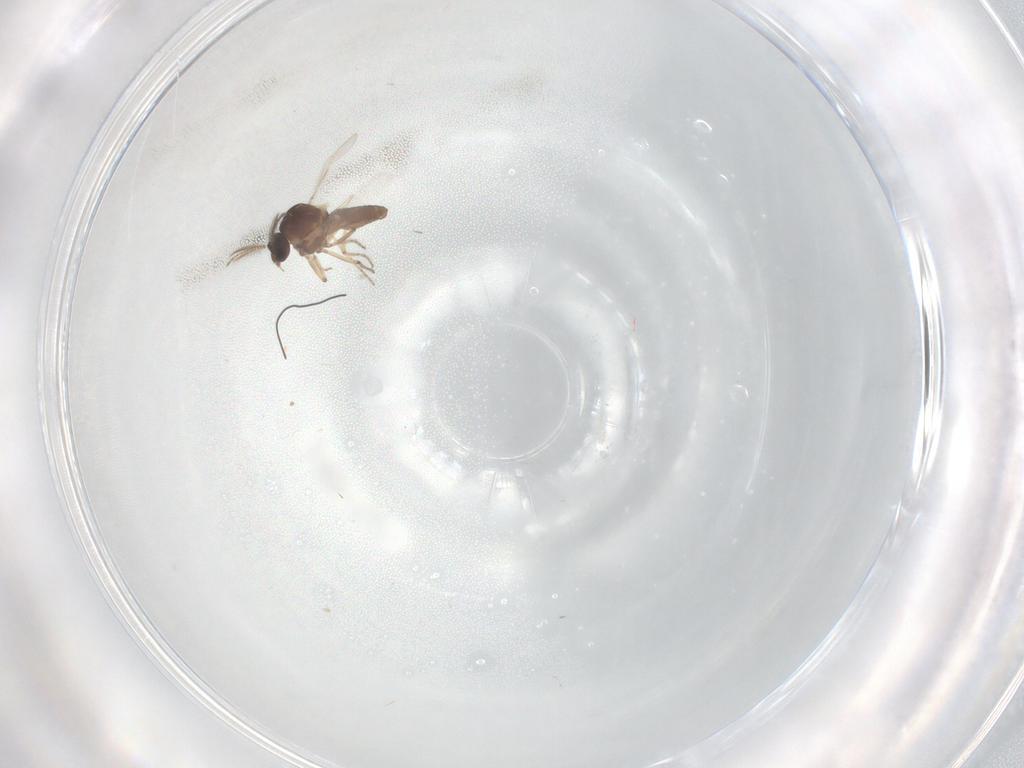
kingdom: Animalia
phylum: Arthropoda
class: Insecta
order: Diptera
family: Ceratopogonidae
